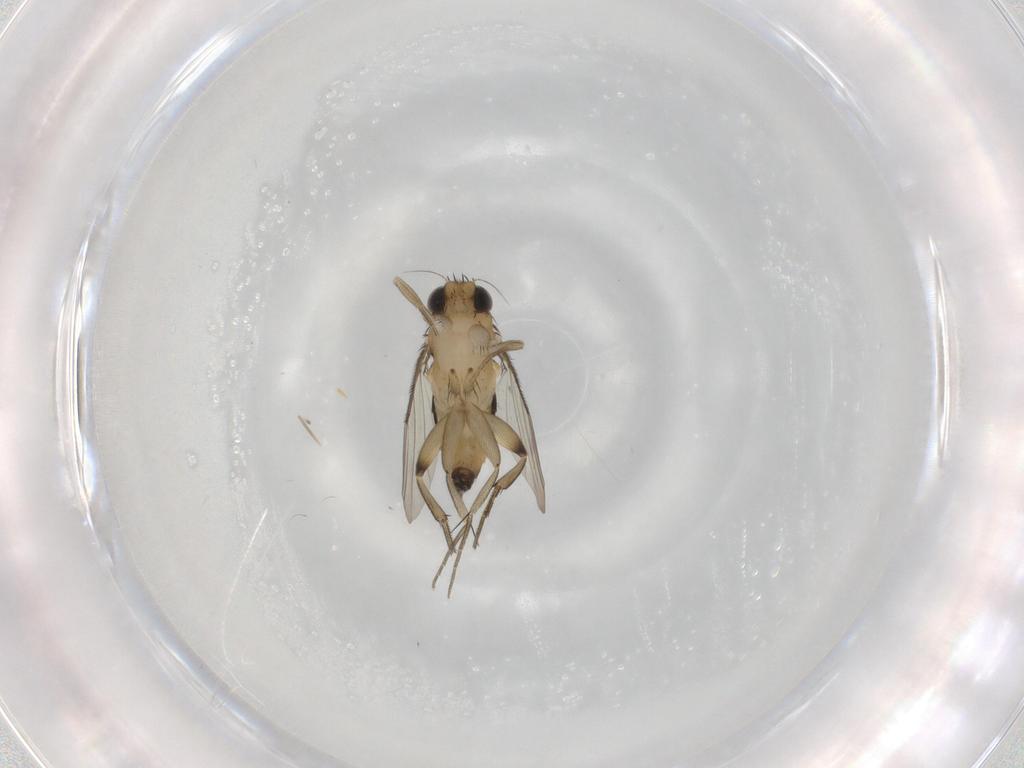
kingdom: Animalia
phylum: Arthropoda
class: Insecta
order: Diptera
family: Phoridae
